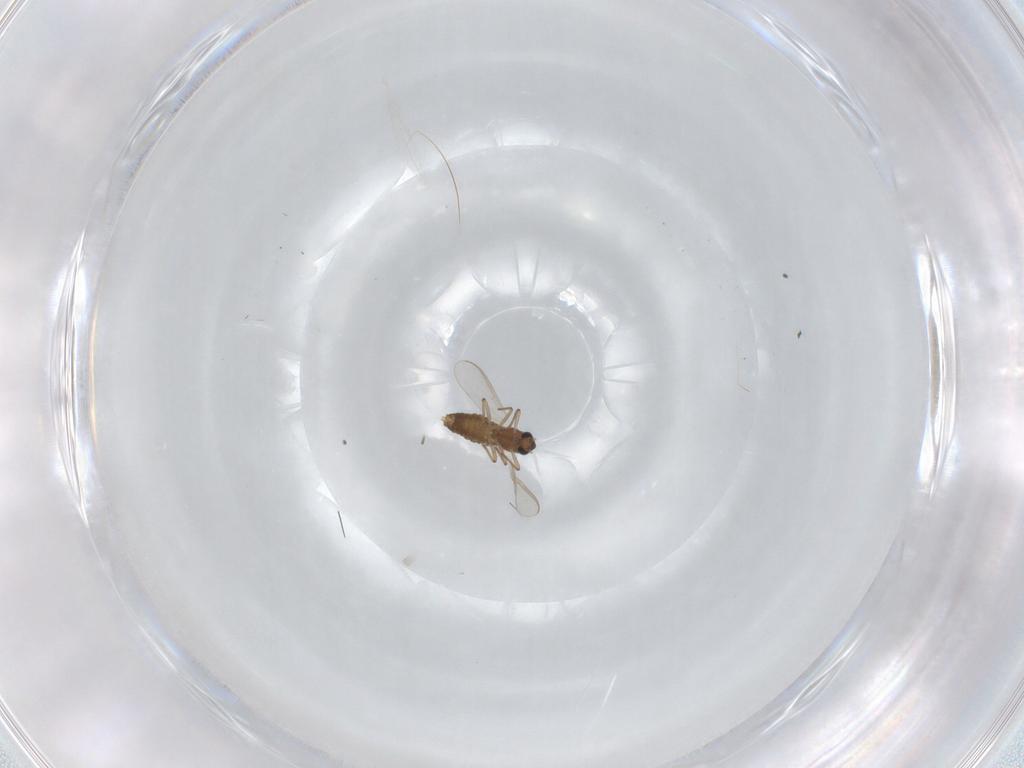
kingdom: Animalia
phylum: Arthropoda
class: Insecta
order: Diptera
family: Chironomidae
